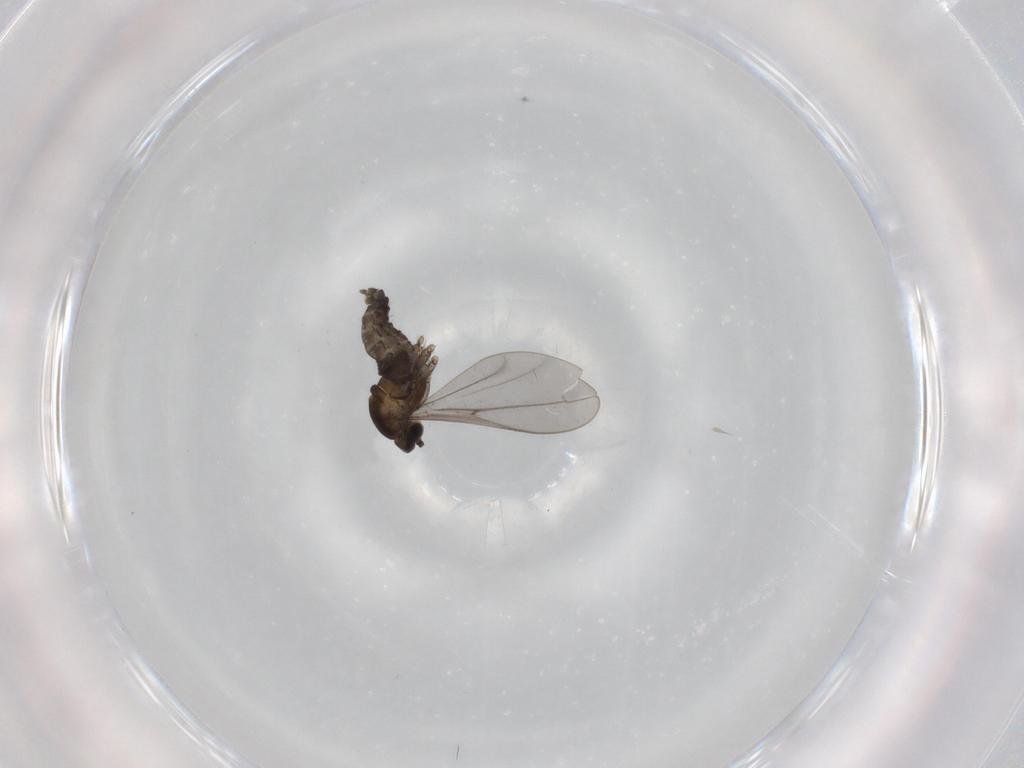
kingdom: Animalia
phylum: Arthropoda
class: Insecta
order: Diptera
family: Cecidomyiidae
